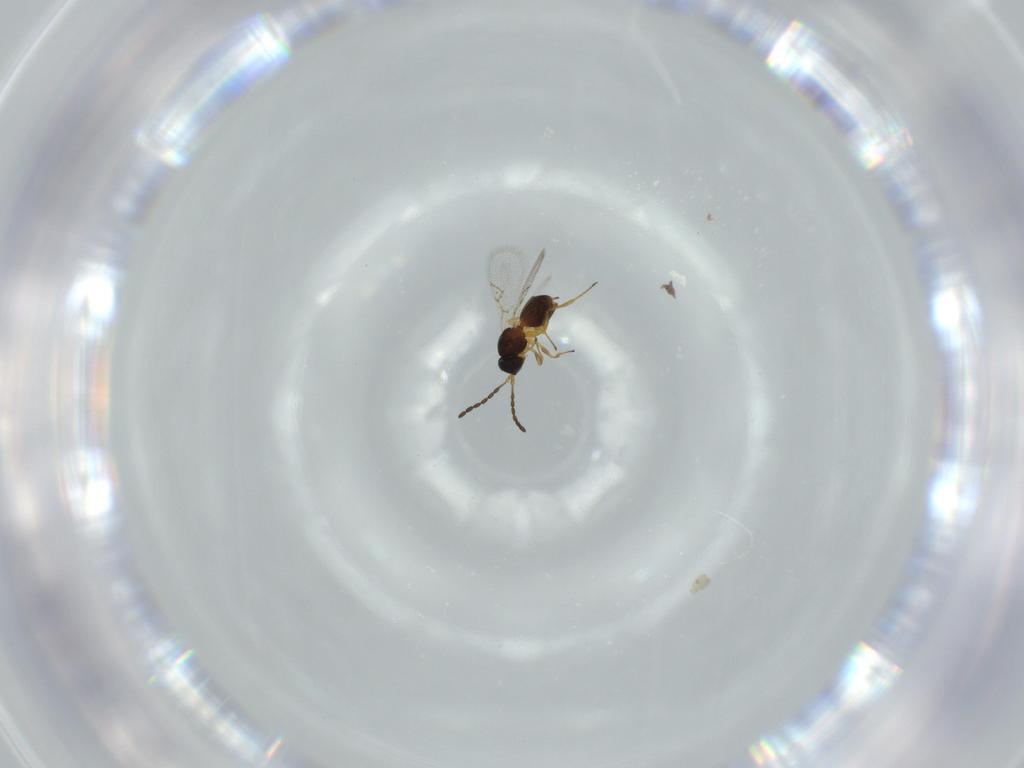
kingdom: Animalia
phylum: Arthropoda
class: Insecta
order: Hymenoptera
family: Figitidae
